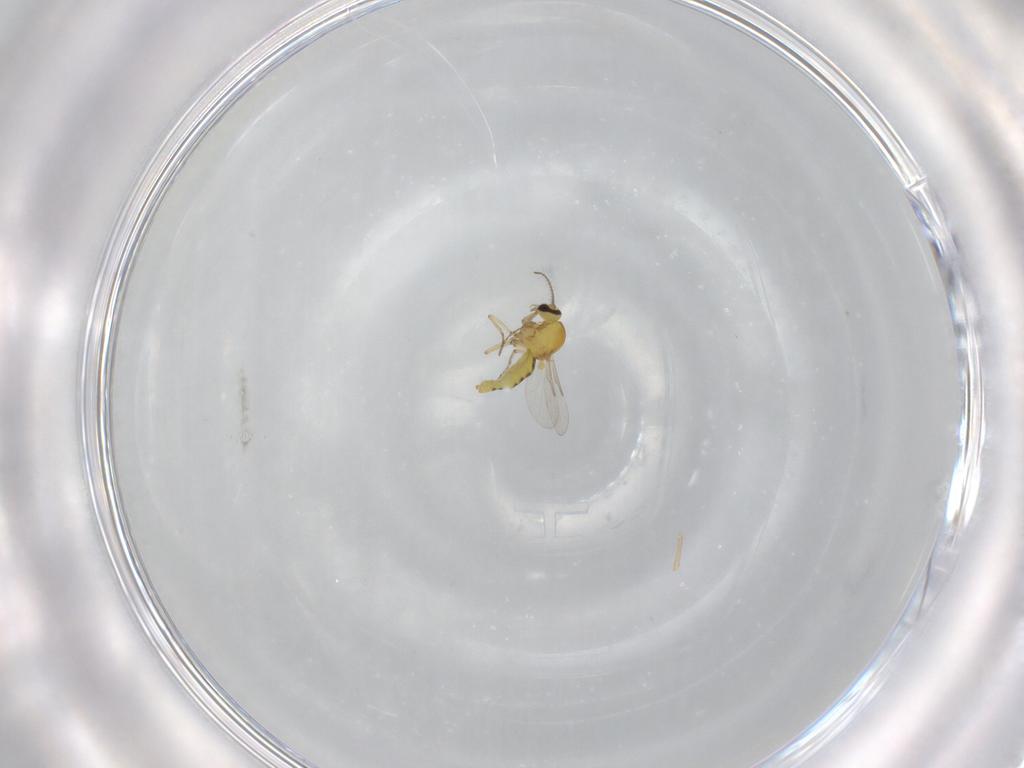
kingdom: Animalia
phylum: Arthropoda
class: Insecta
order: Diptera
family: Ceratopogonidae
